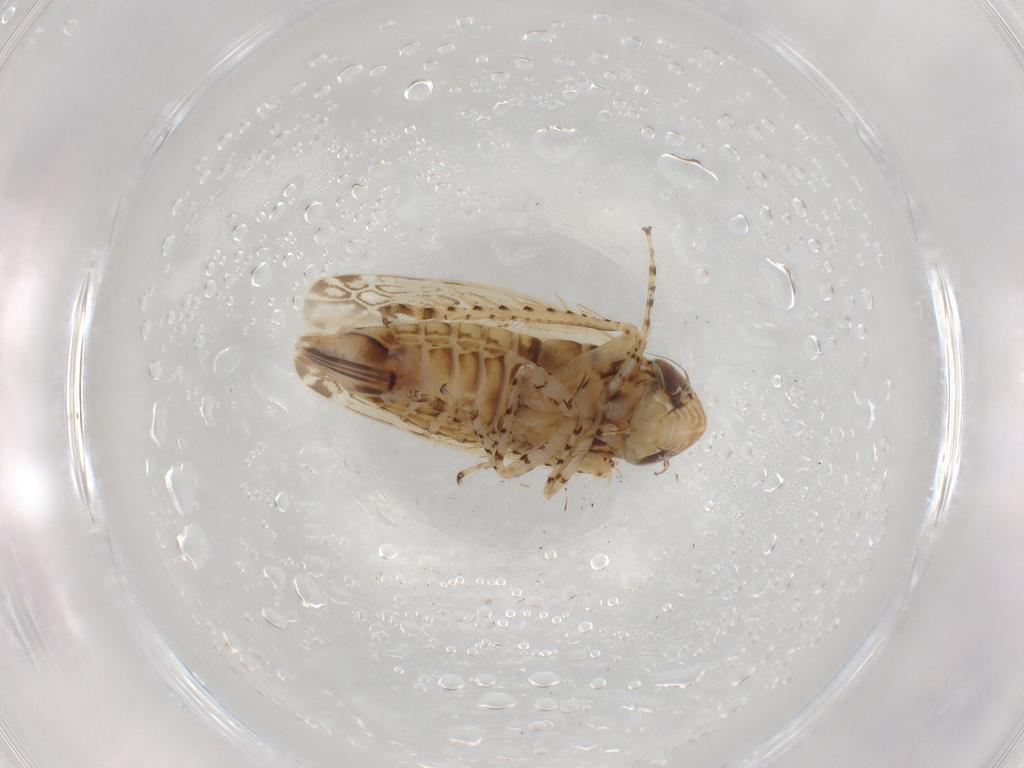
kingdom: Animalia
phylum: Arthropoda
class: Insecta
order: Hemiptera
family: Cicadellidae
